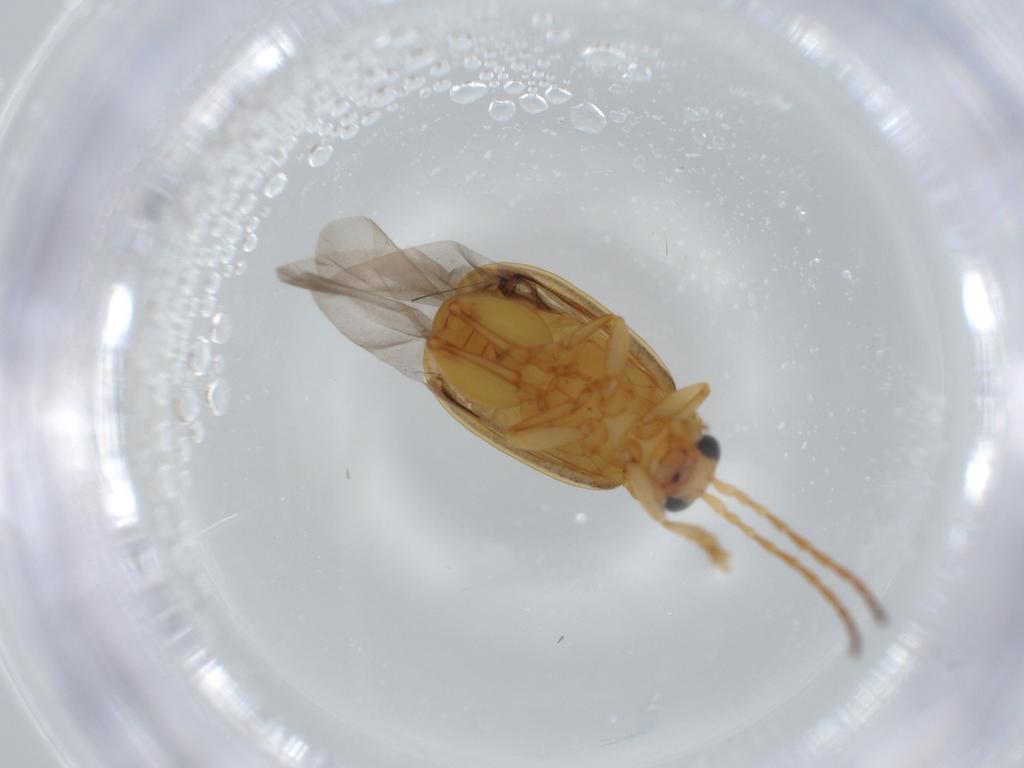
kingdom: Animalia
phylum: Arthropoda
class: Insecta
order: Coleoptera
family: Chrysomelidae
